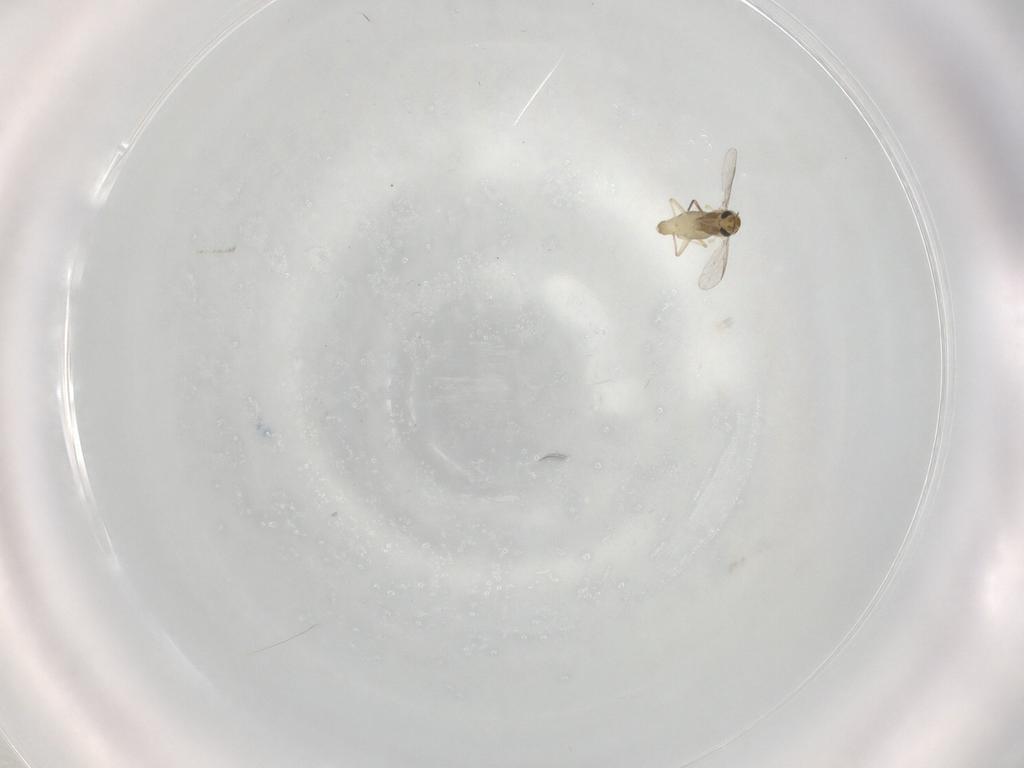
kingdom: Animalia
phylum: Arthropoda
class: Insecta
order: Diptera
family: Chironomidae
